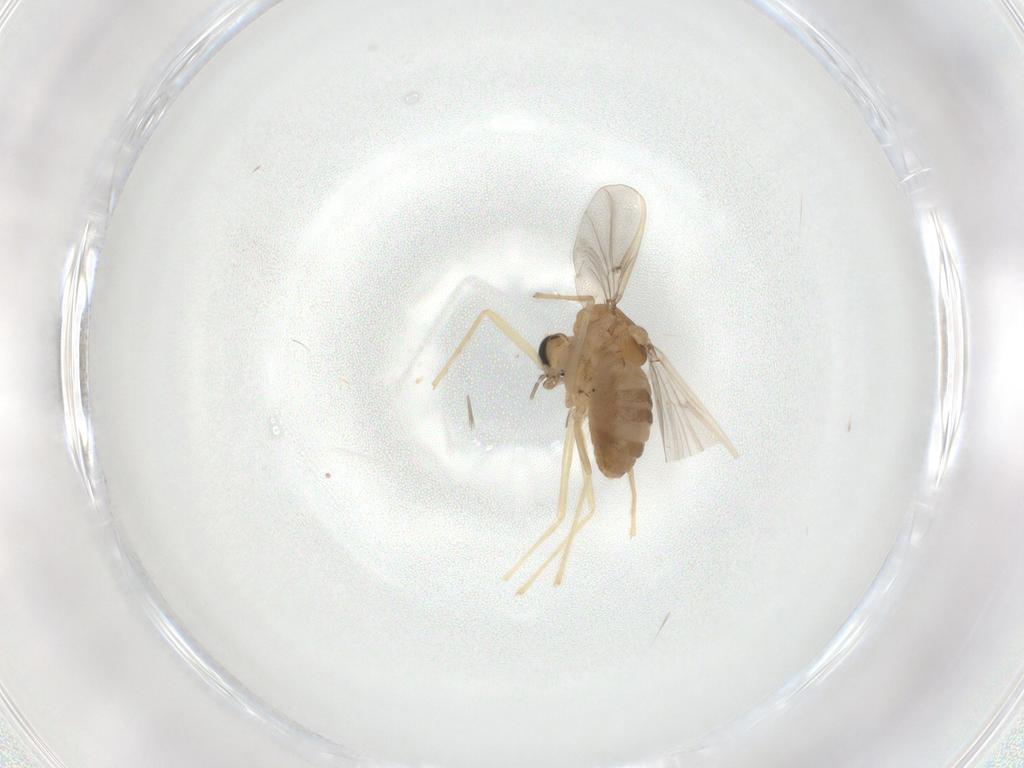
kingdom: Animalia
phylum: Arthropoda
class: Insecta
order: Diptera
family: Chironomidae
